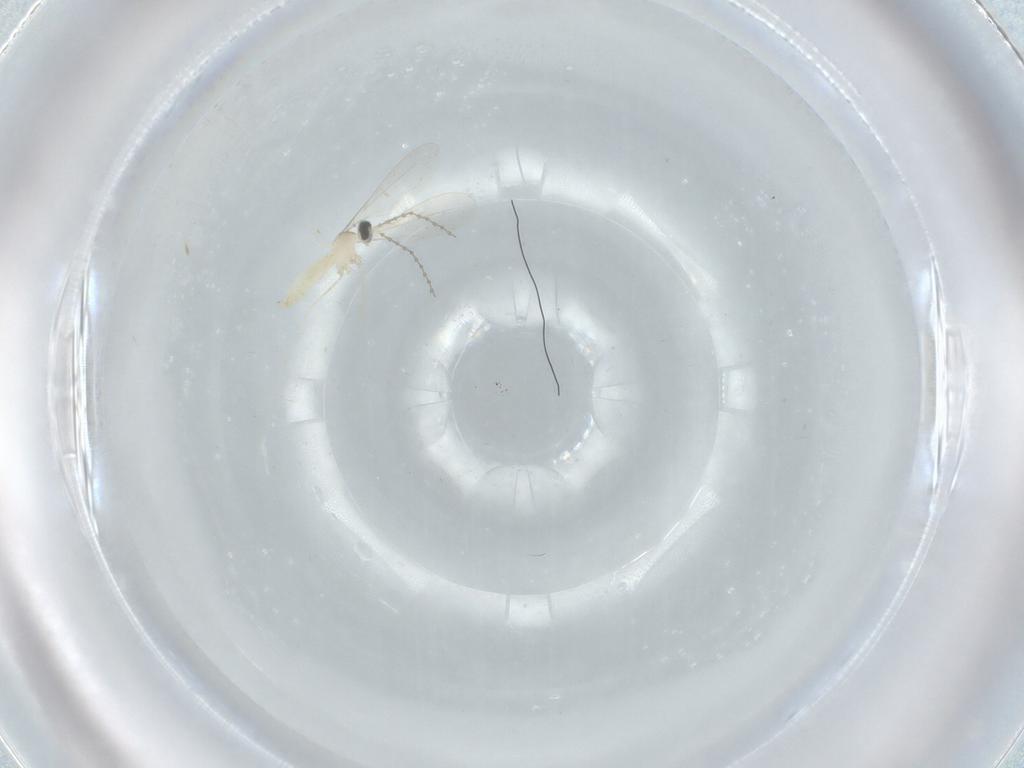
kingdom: Animalia
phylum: Arthropoda
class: Insecta
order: Diptera
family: Cecidomyiidae
